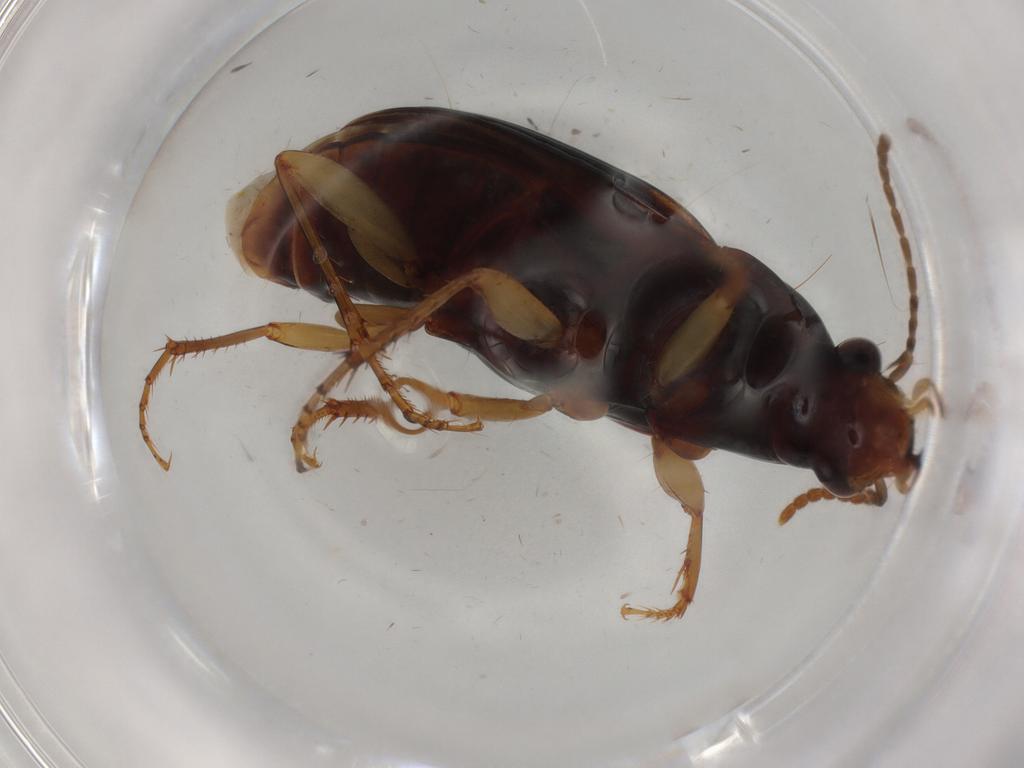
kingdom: Animalia
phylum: Arthropoda
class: Insecta
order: Coleoptera
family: Carabidae
